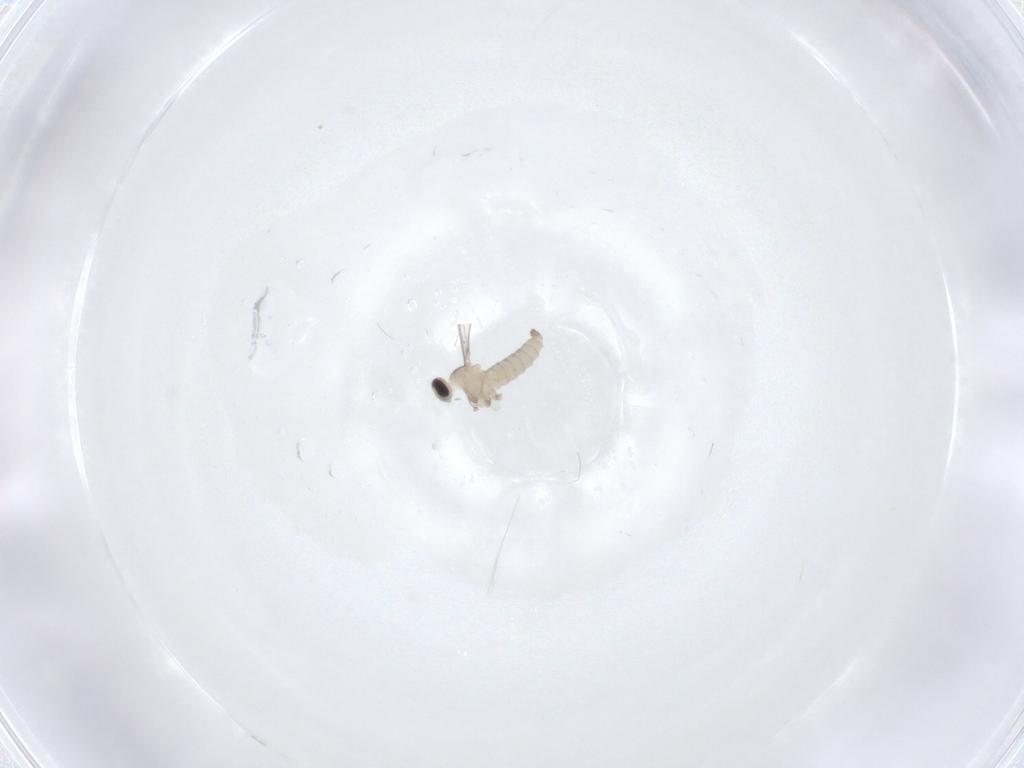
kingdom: Animalia
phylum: Arthropoda
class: Insecta
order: Diptera
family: Cecidomyiidae
